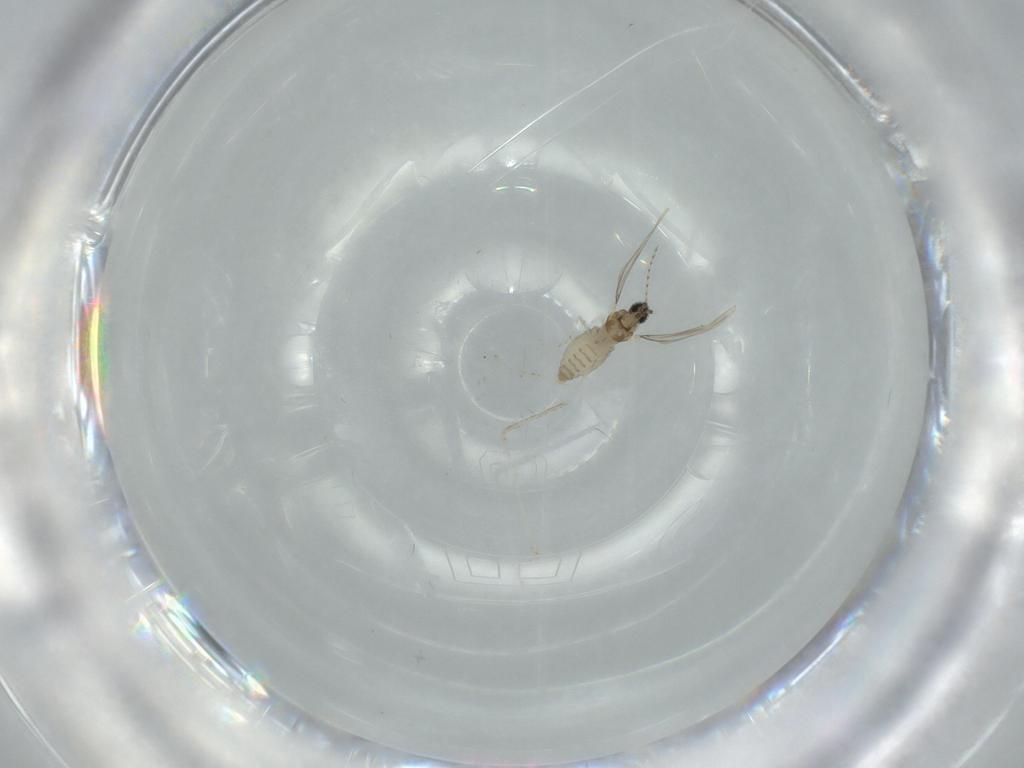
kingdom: Animalia
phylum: Arthropoda
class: Insecta
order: Diptera
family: Cecidomyiidae
